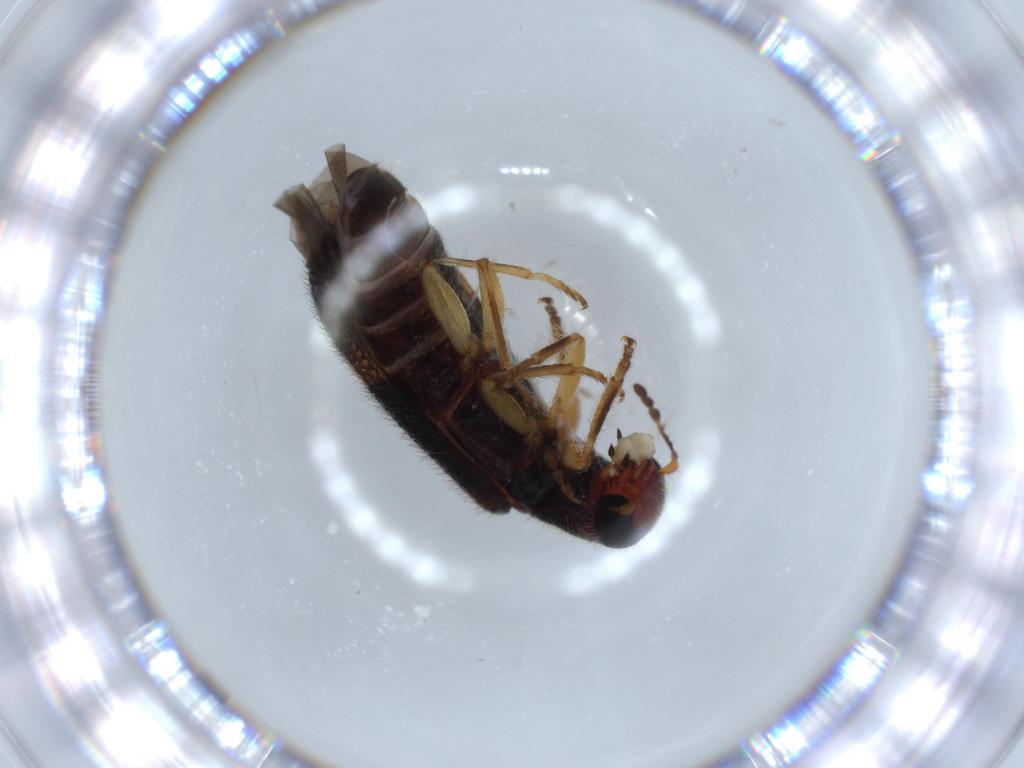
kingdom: Animalia
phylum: Arthropoda
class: Insecta
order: Coleoptera
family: Cleridae
